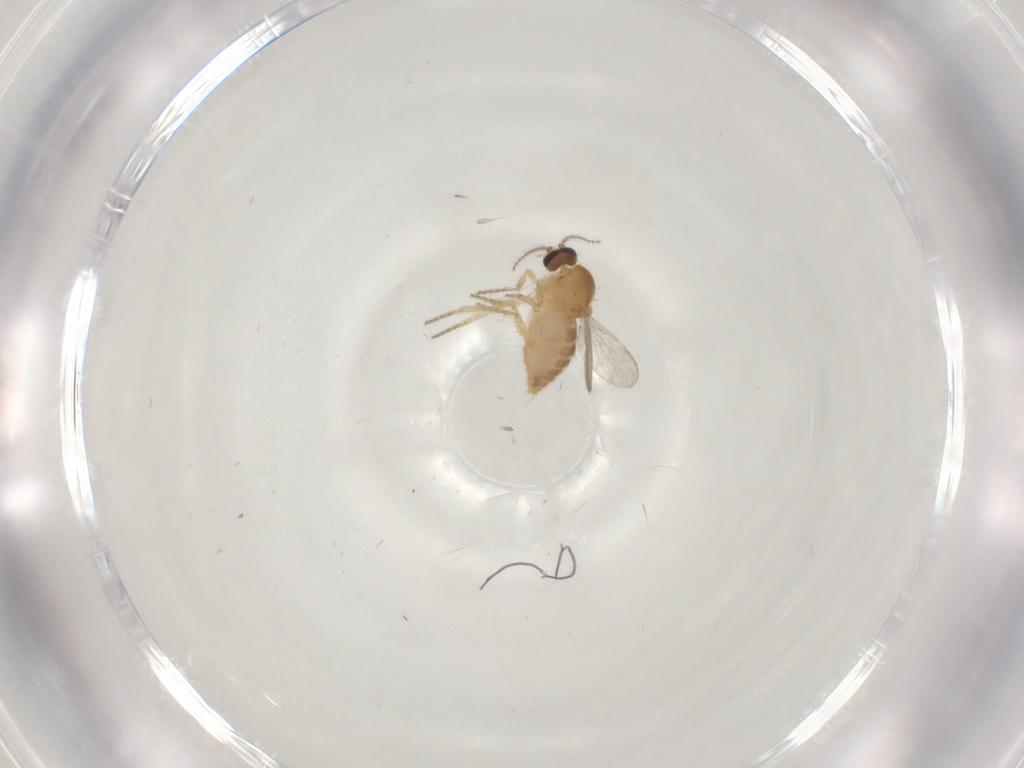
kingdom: Animalia
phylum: Arthropoda
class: Insecta
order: Diptera
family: Ceratopogonidae
